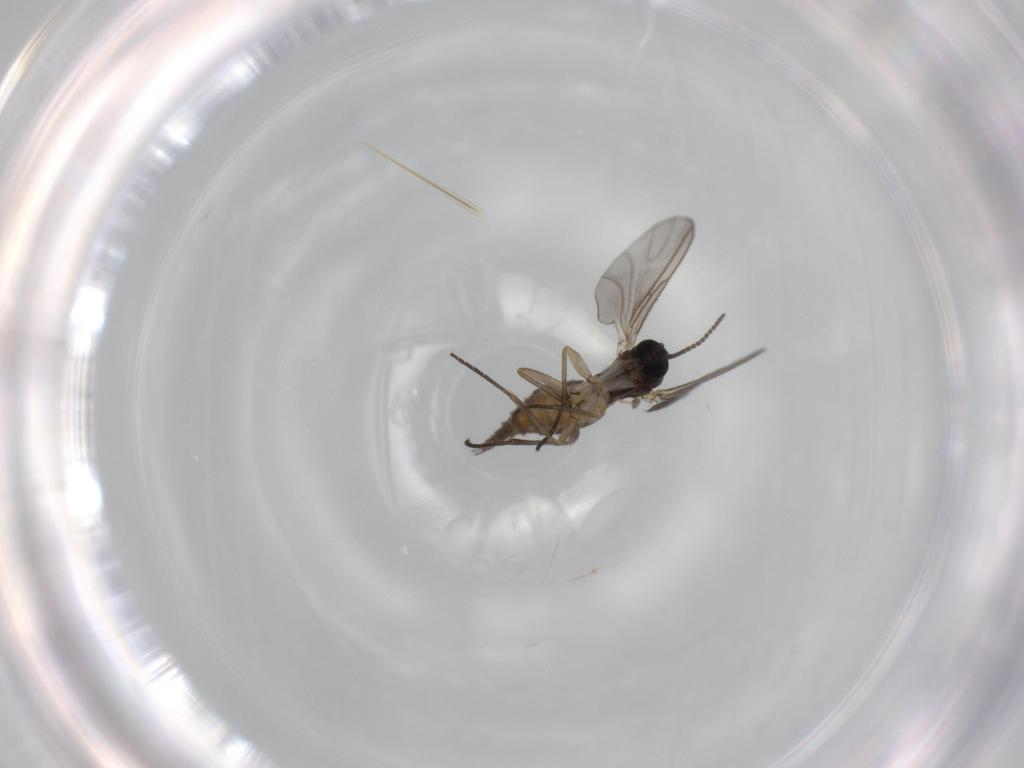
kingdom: Animalia
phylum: Arthropoda
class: Insecta
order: Diptera
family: Sciaridae
